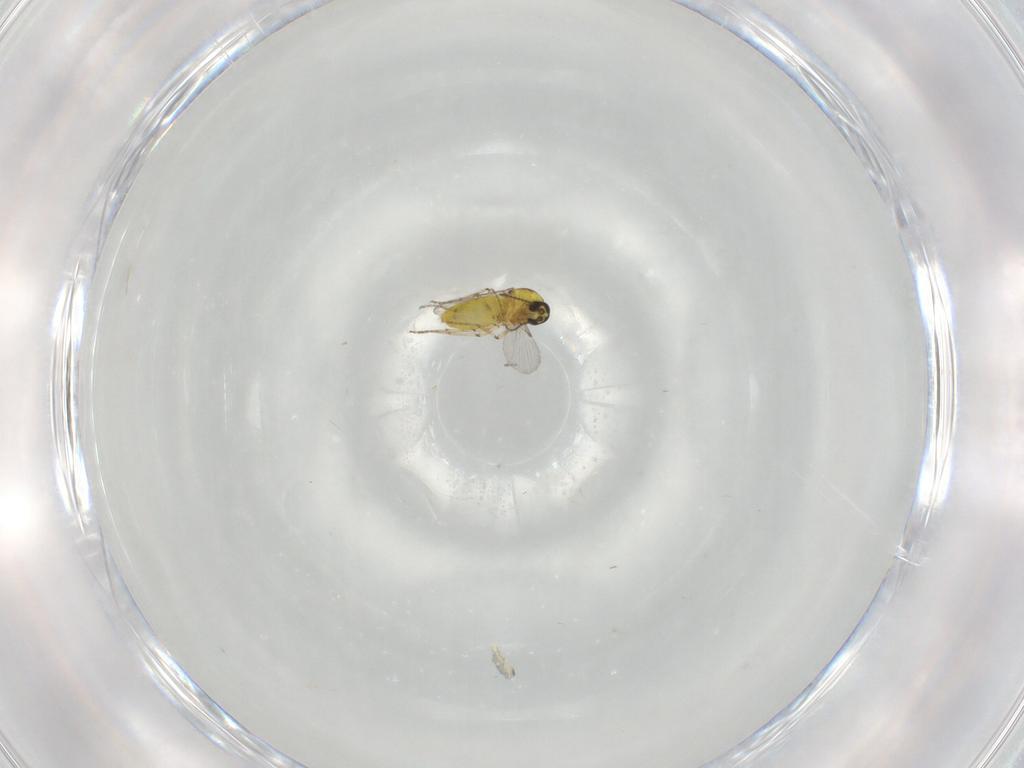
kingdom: Animalia
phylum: Arthropoda
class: Insecta
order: Diptera
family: Ceratopogonidae
